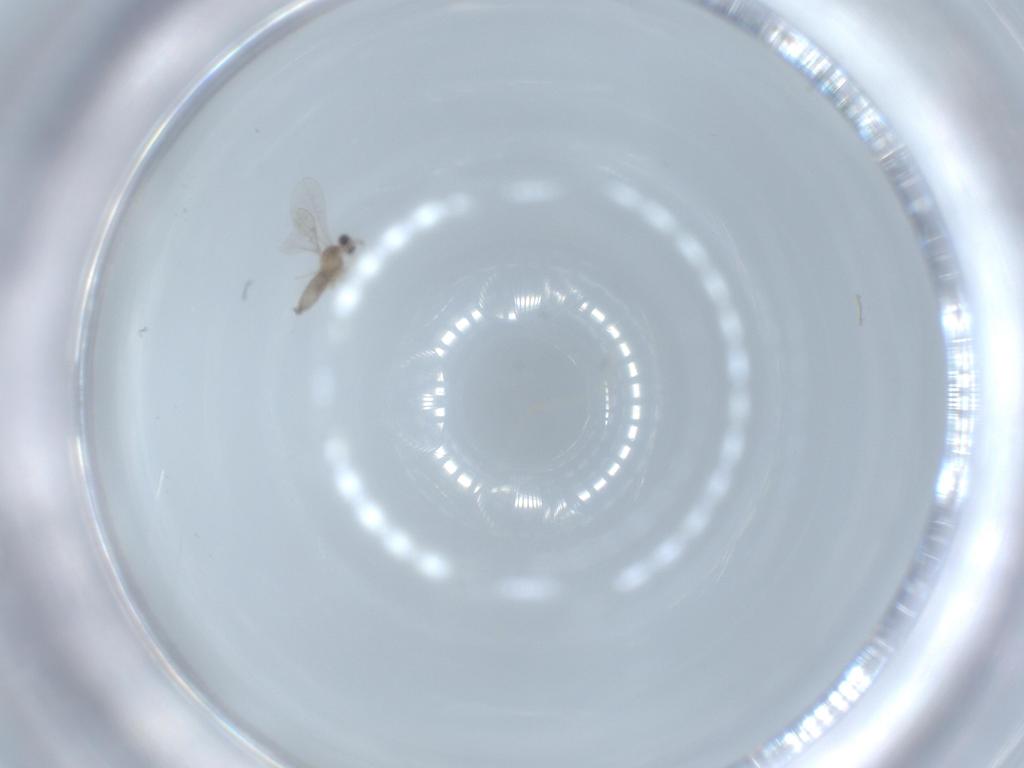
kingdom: Animalia
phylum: Arthropoda
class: Insecta
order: Diptera
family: Cecidomyiidae
